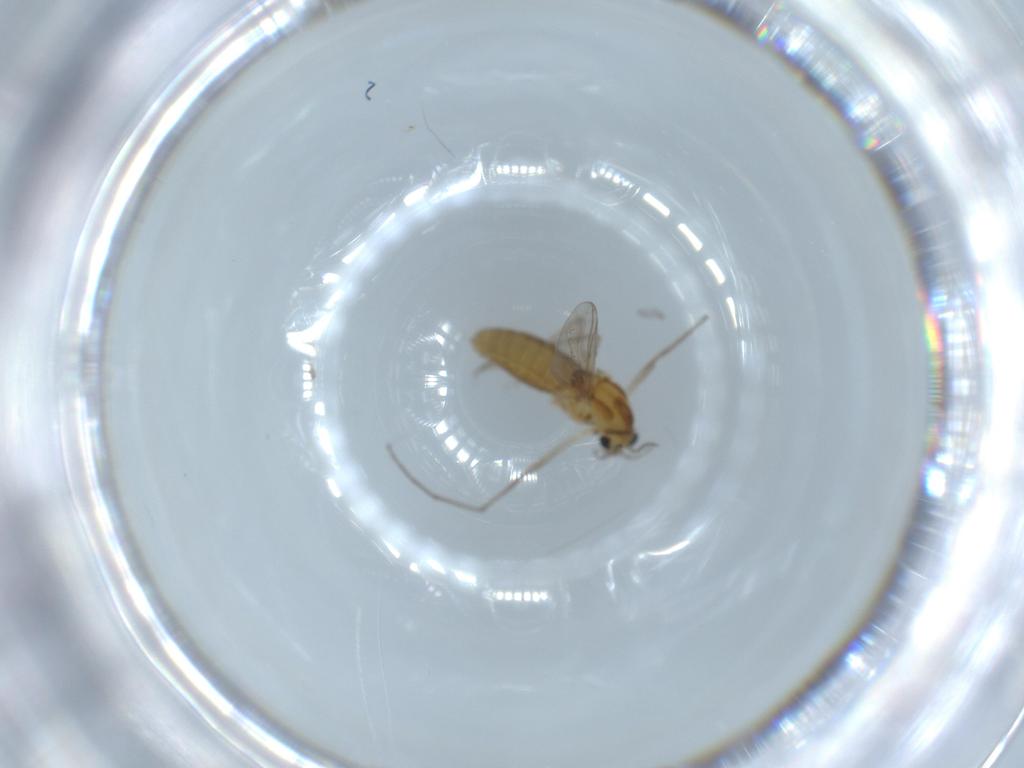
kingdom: Animalia
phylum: Arthropoda
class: Insecta
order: Diptera
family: Chironomidae
